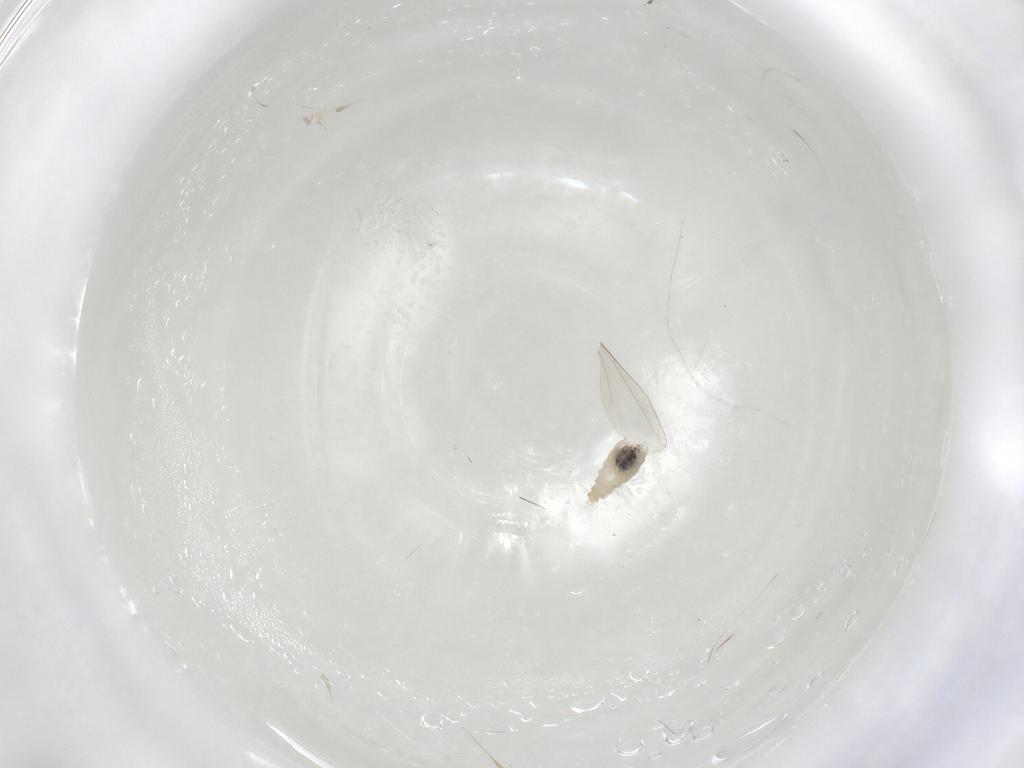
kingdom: Animalia
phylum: Arthropoda
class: Insecta
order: Diptera
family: Cecidomyiidae
